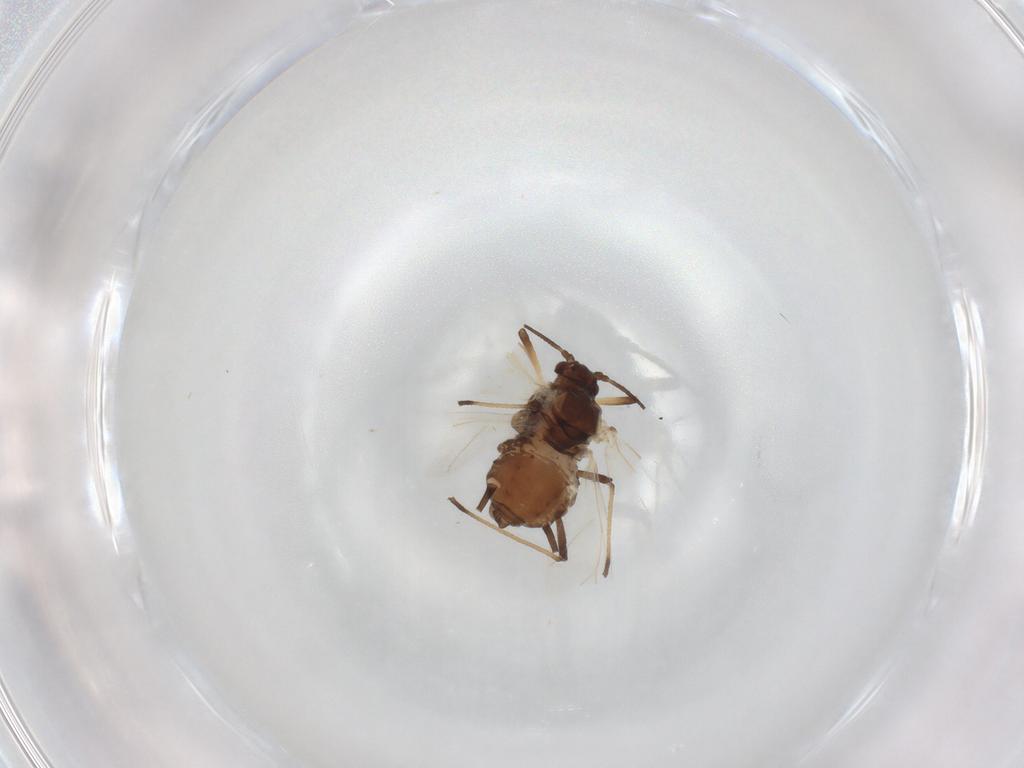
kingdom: Animalia
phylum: Arthropoda
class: Insecta
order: Hemiptera
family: Aphididae
